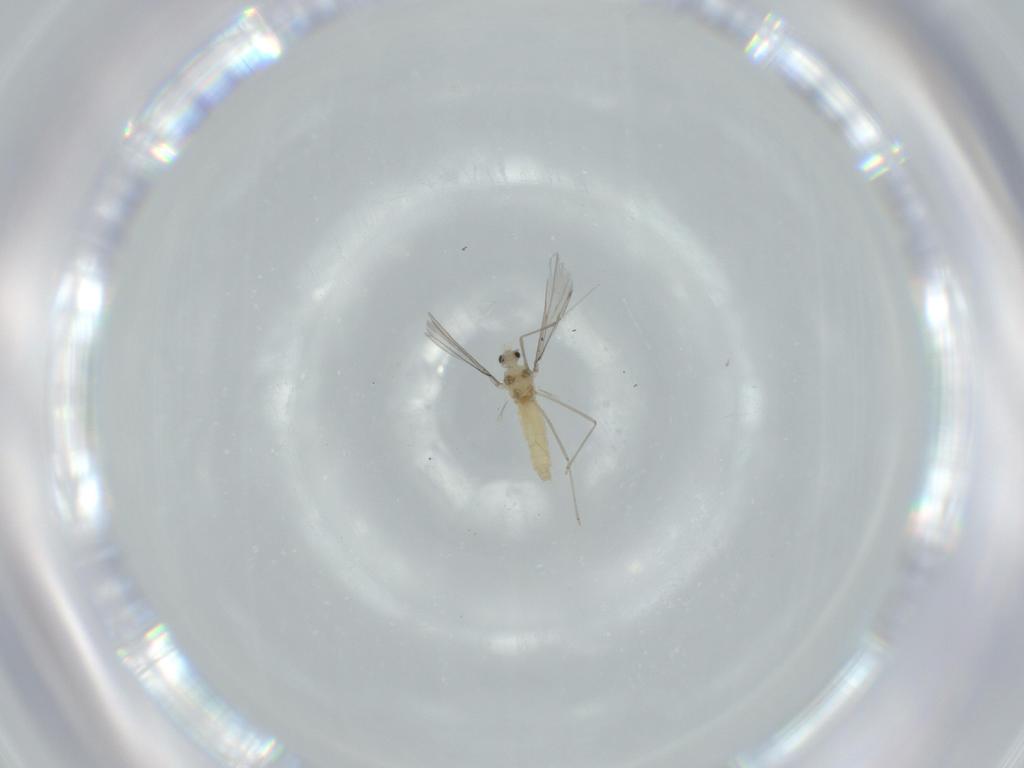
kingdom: Animalia
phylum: Arthropoda
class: Insecta
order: Diptera
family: Cecidomyiidae
